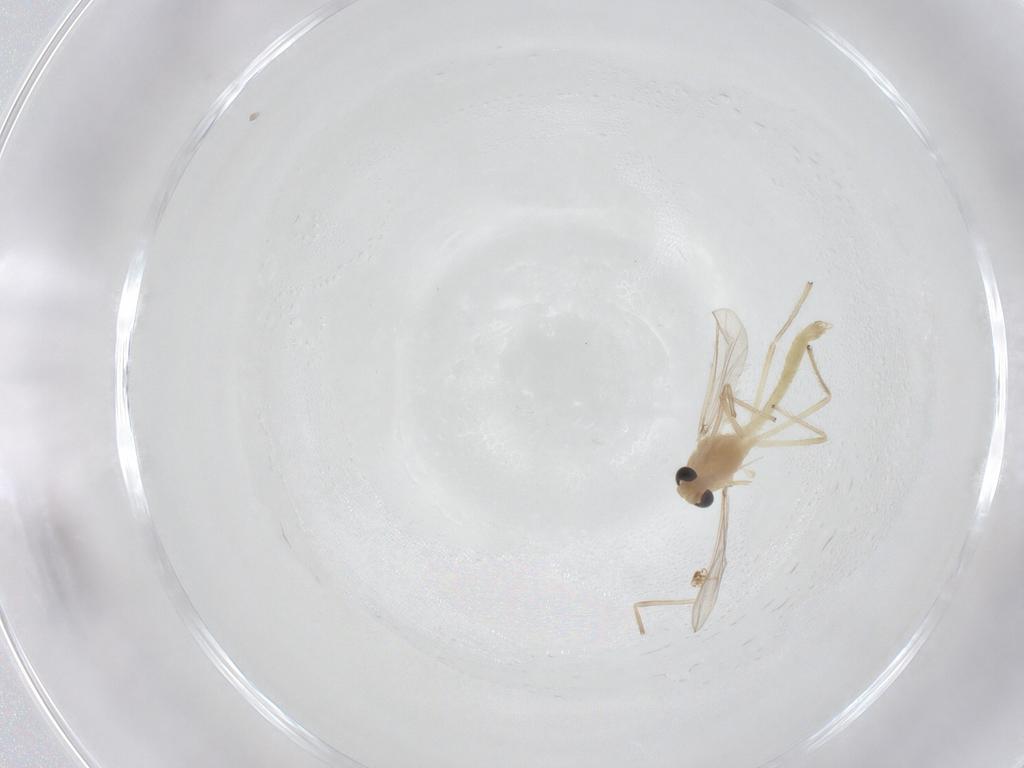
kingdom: Animalia
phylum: Arthropoda
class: Insecta
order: Diptera
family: Chironomidae
